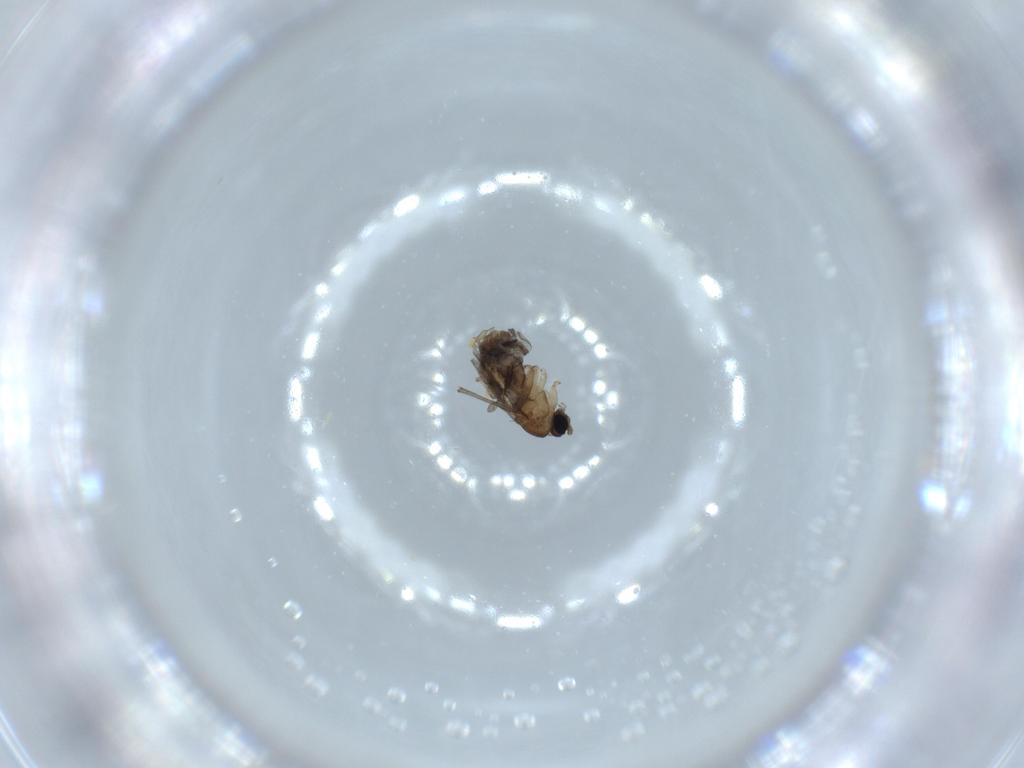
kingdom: Animalia
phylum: Arthropoda
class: Insecta
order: Diptera
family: Sciaridae
